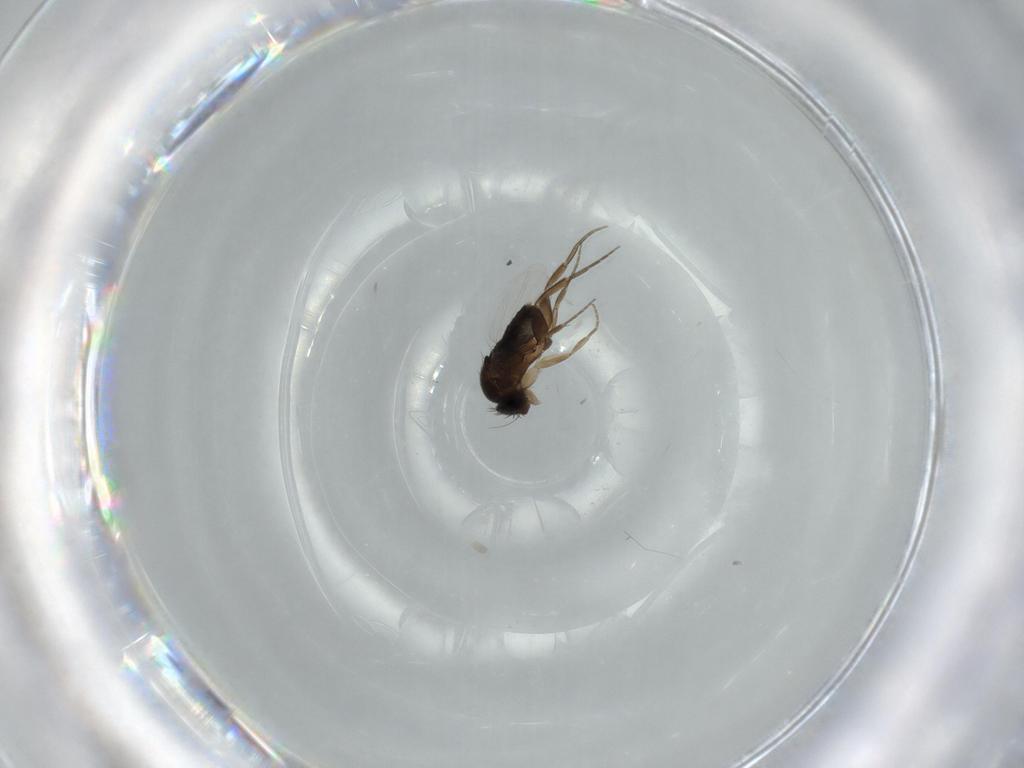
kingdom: Animalia
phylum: Arthropoda
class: Insecta
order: Diptera
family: Phoridae
